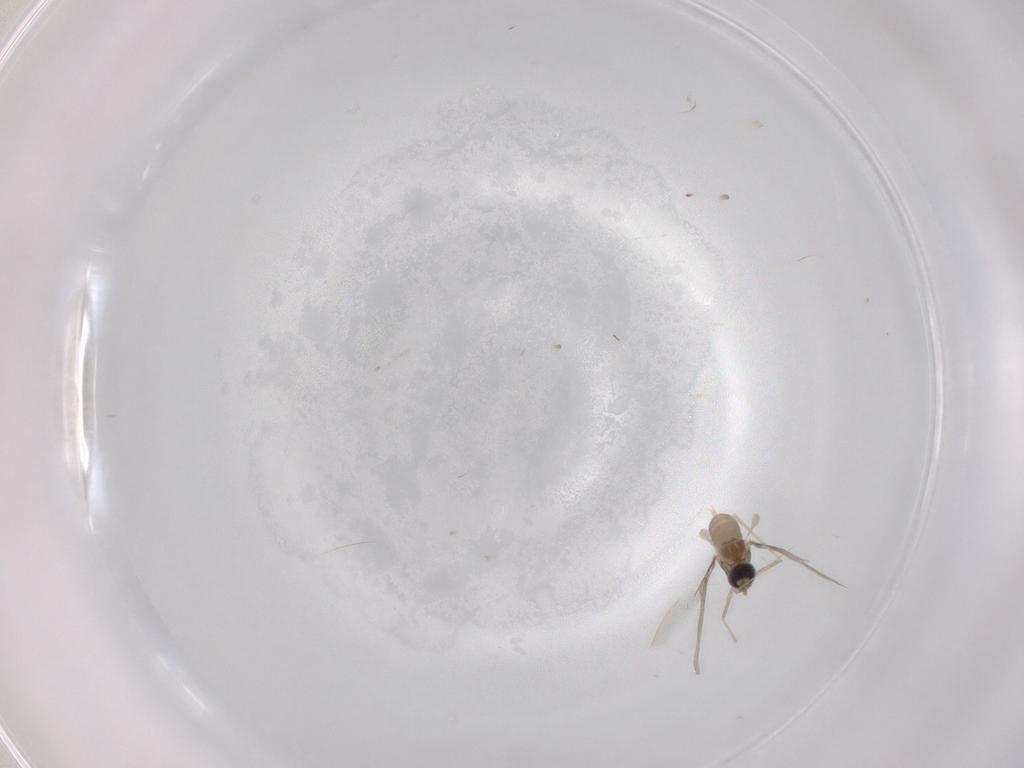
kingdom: Animalia
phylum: Arthropoda
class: Insecta
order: Diptera
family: Cecidomyiidae
